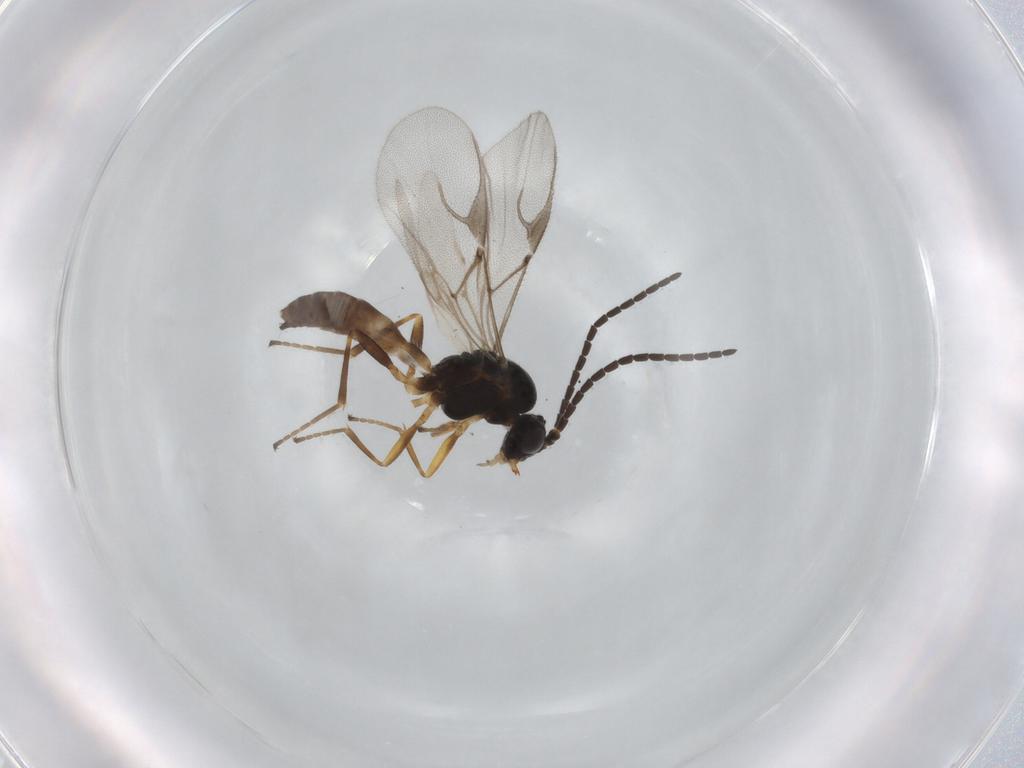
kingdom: Animalia
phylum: Arthropoda
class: Insecta
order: Hymenoptera
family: Braconidae
